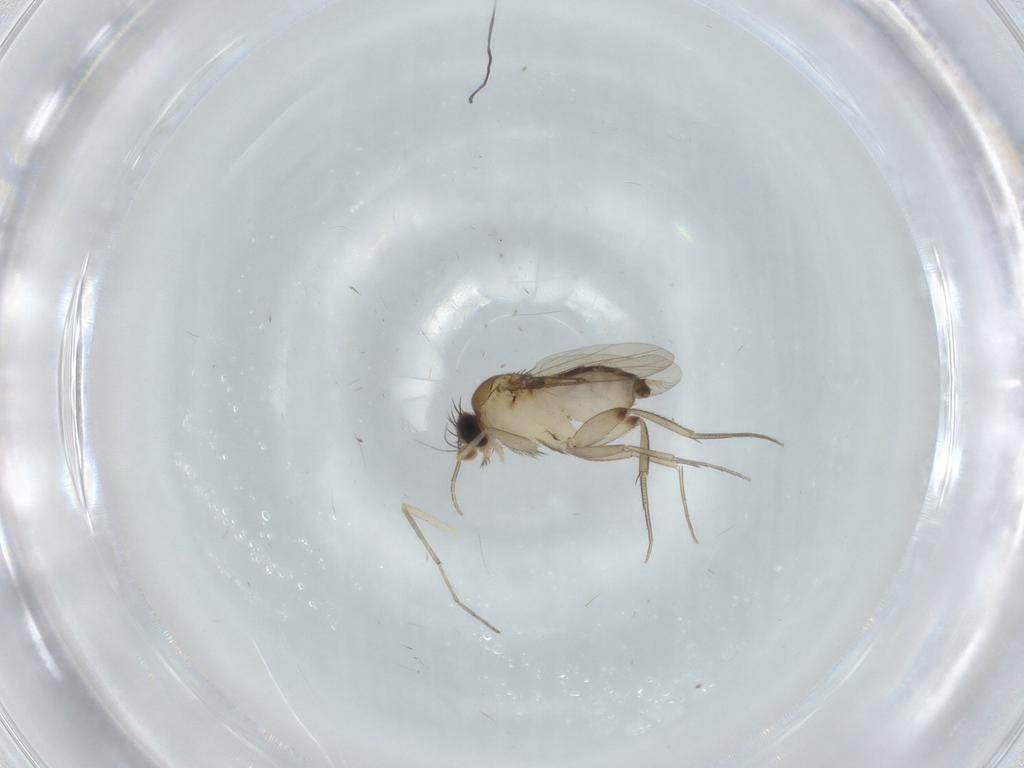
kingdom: Animalia
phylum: Arthropoda
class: Insecta
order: Diptera
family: Phoridae
